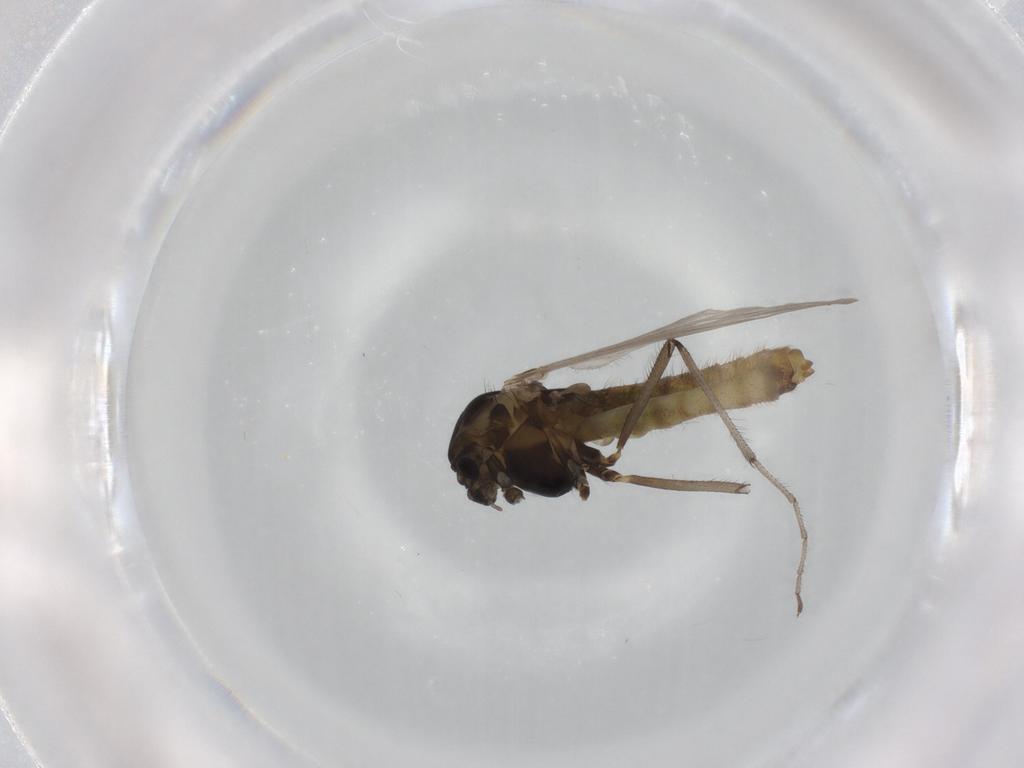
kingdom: Animalia
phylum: Arthropoda
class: Insecta
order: Diptera
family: Chironomidae
